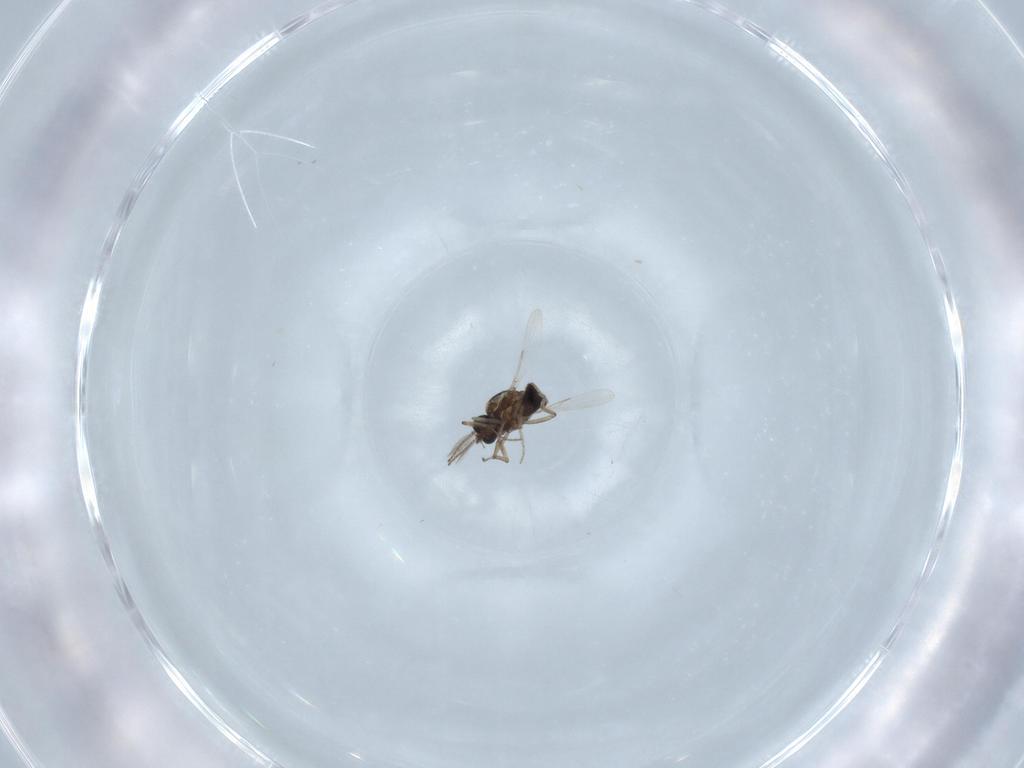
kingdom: Animalia
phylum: Arthropoda
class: Insecta
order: Diptera
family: Ceratopogonidae
